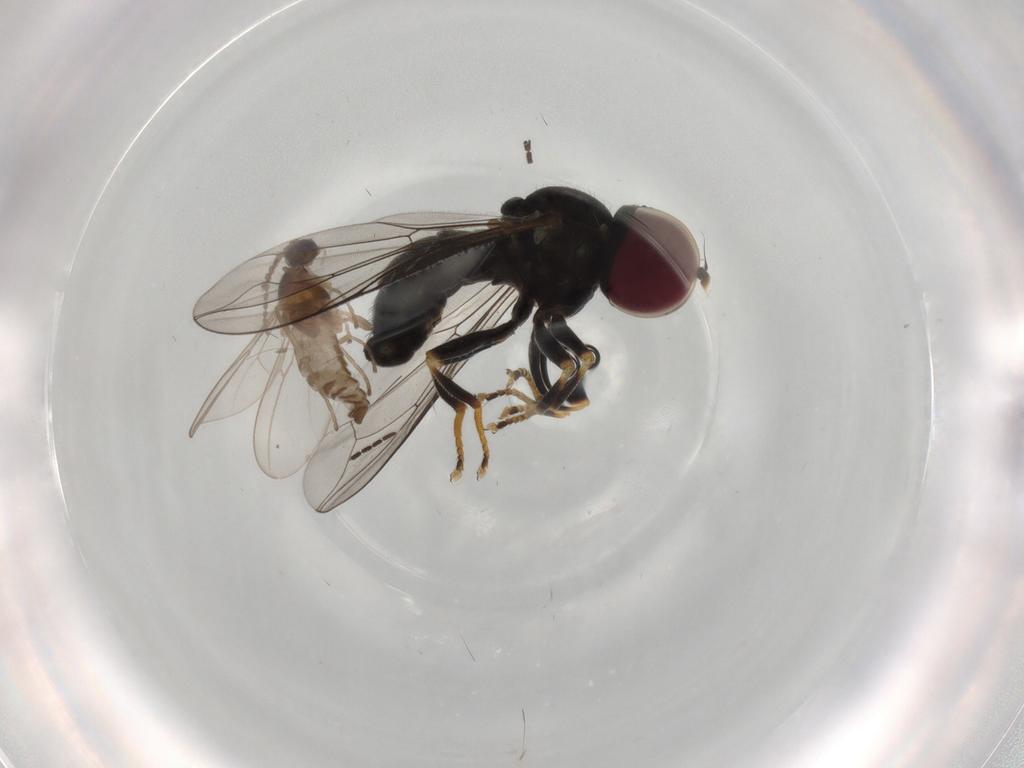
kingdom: Animalia
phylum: Arthropoda
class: Insecta
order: Diptera
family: Pipunculidae
